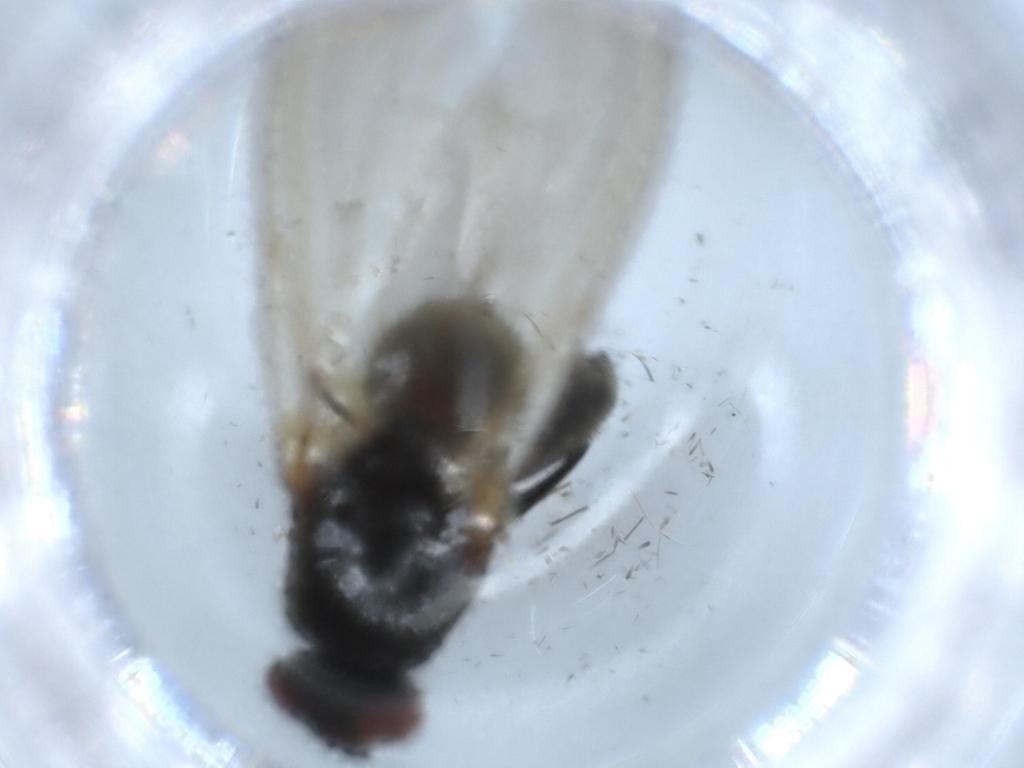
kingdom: Animalia
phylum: Arthropoda
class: Insecta
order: Diptera
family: Anthomyiidae
